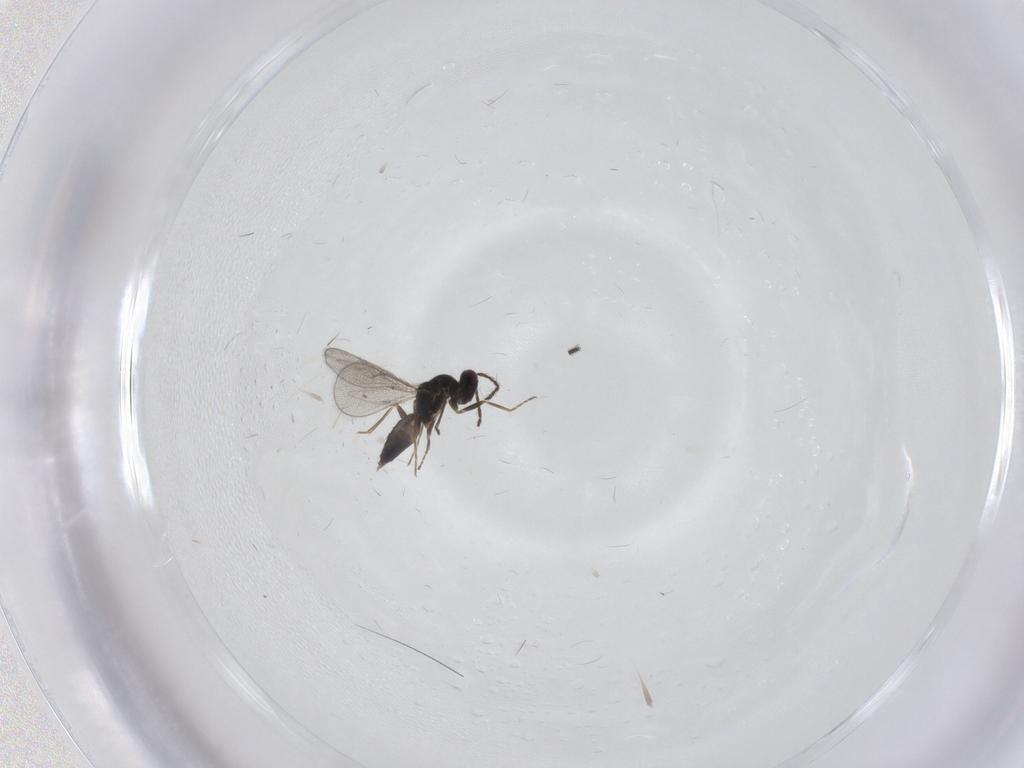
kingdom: Animalia
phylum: Arthropoda
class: Insecta
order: Hymenoptera
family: Eulophidae
